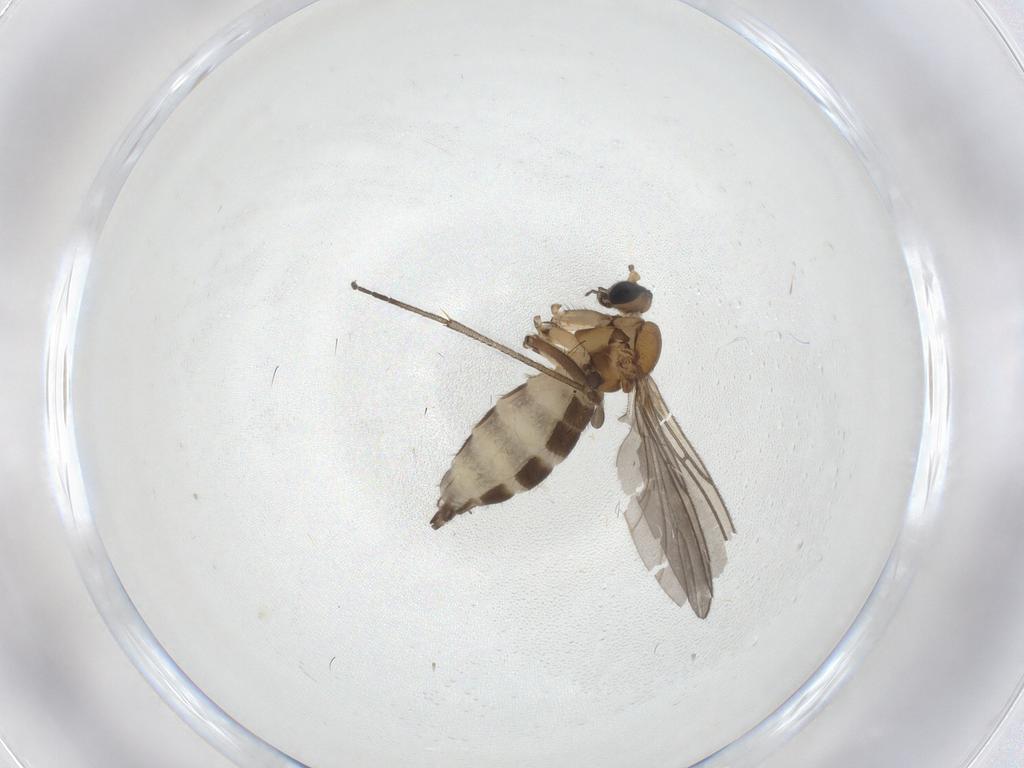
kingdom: Animalia
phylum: Arthropoda
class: Insecta
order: Diptera
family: Sciaridae
